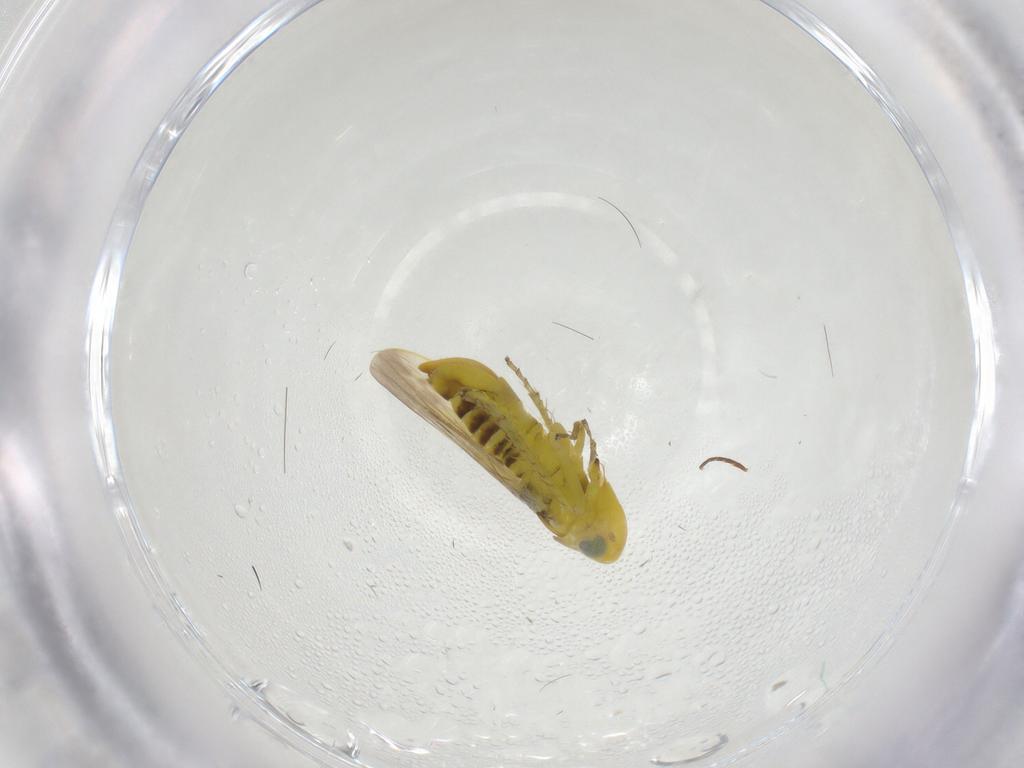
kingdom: Animalia
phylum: Arthropoda
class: Insecta
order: Hemiptera
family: Cicadellidae
